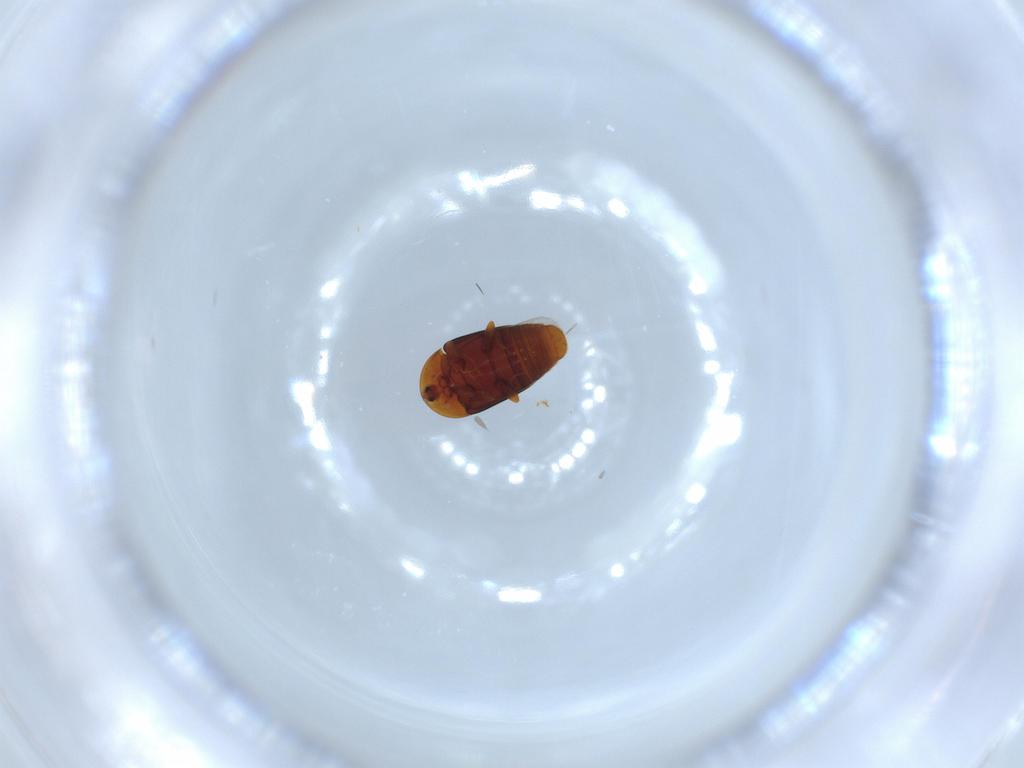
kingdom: Animalia
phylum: Arthropoda
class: Insecta
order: Coleoptera
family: Corylophidae
